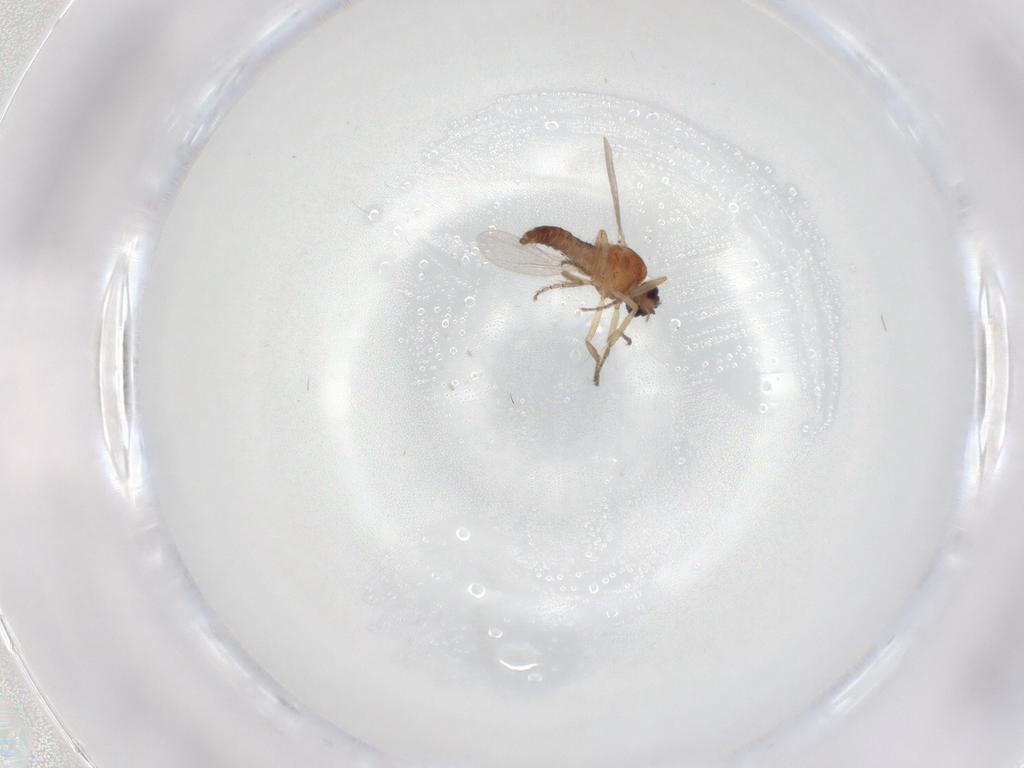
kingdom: Animalia
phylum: Arthropoda
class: Insecta
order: Diptera
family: Ceratopogonidae
